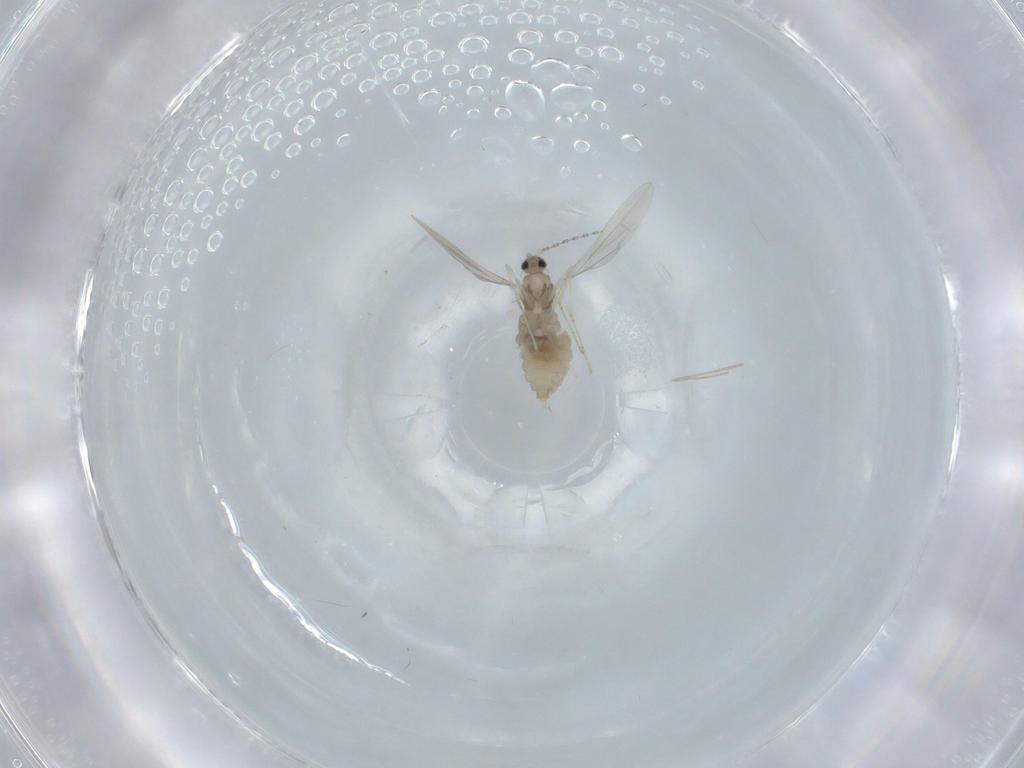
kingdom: Animalia
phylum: Arthropoda
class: Insecta
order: Diptera
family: Cecidomyiidae
